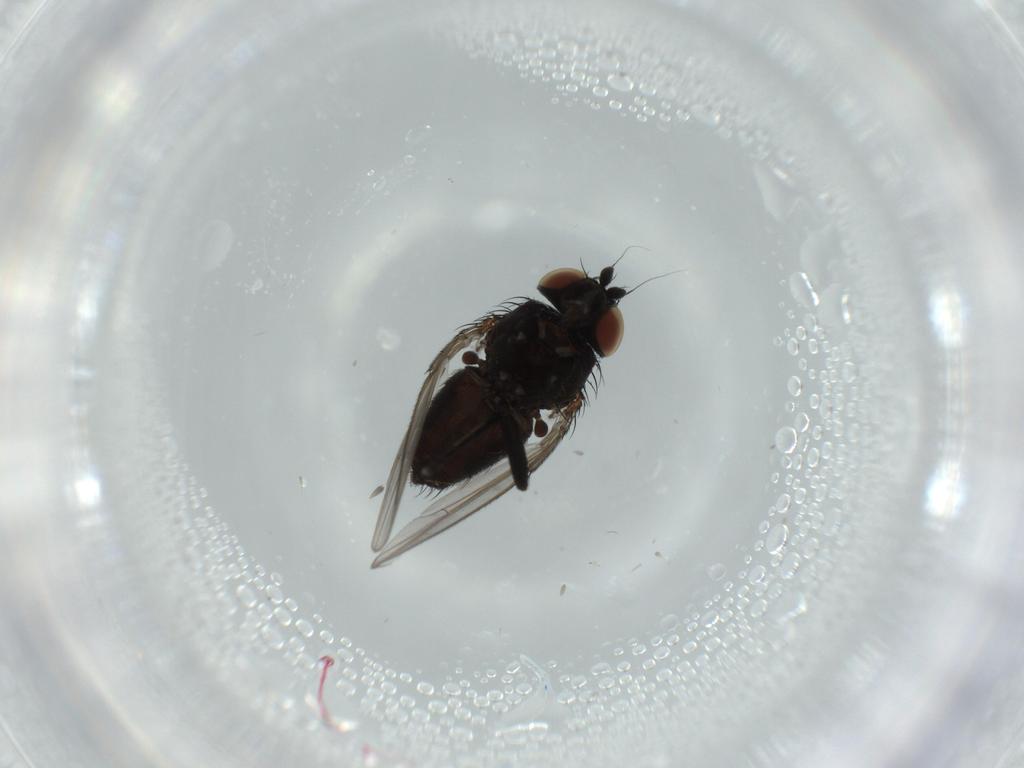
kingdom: Animalia
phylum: Arthropoda
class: Insecta
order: Diptera
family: Milichiidae
